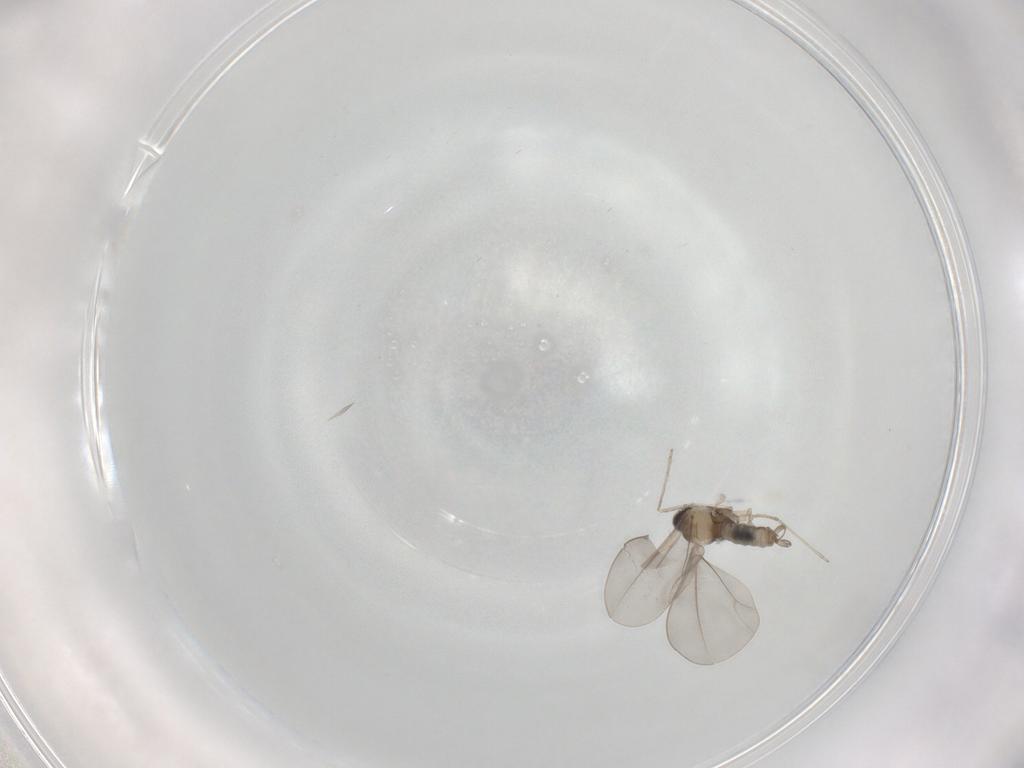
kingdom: Animalia
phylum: Arthropoda
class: Insecta
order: Diptera
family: Cecidomyiidae
